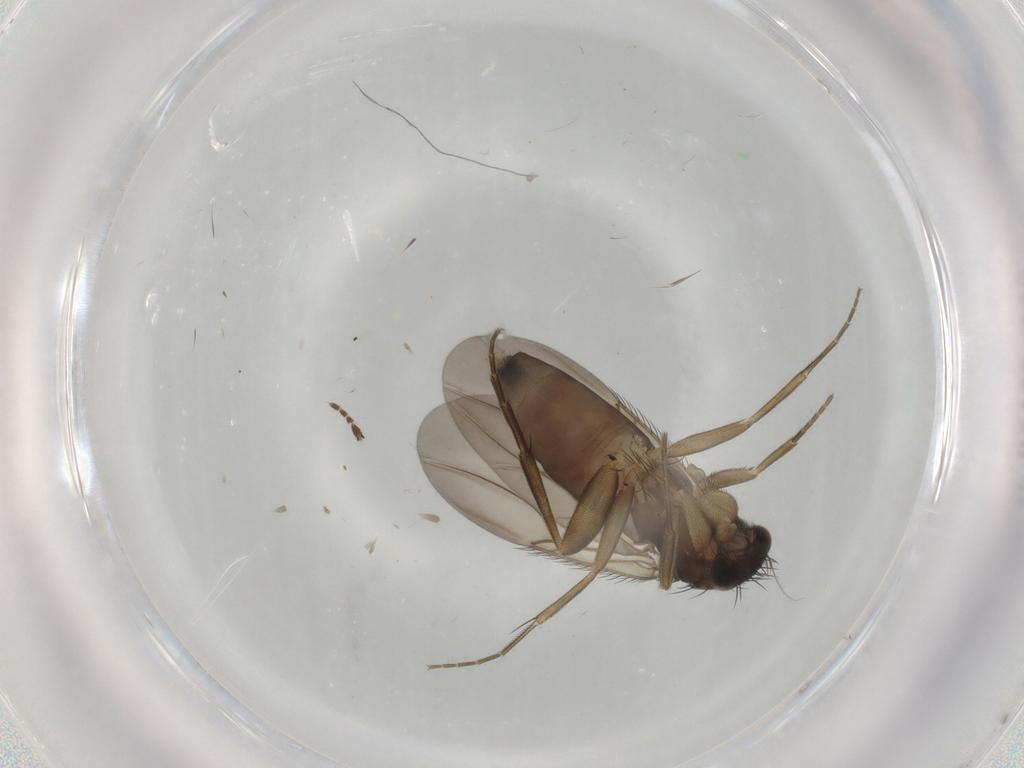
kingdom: Animalia
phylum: Arthropoda
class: Insecta
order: Diptera
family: Phoridae
